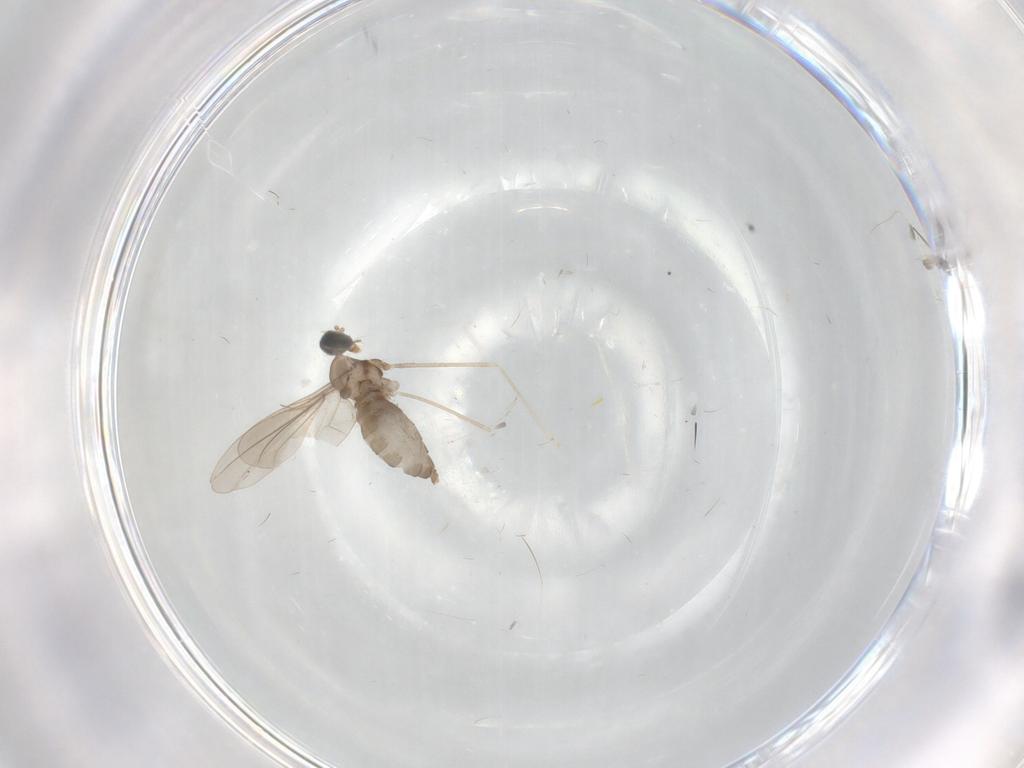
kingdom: Animalia
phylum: Arthropoda
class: Insecta
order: Diptera
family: Cecidomyiidae
